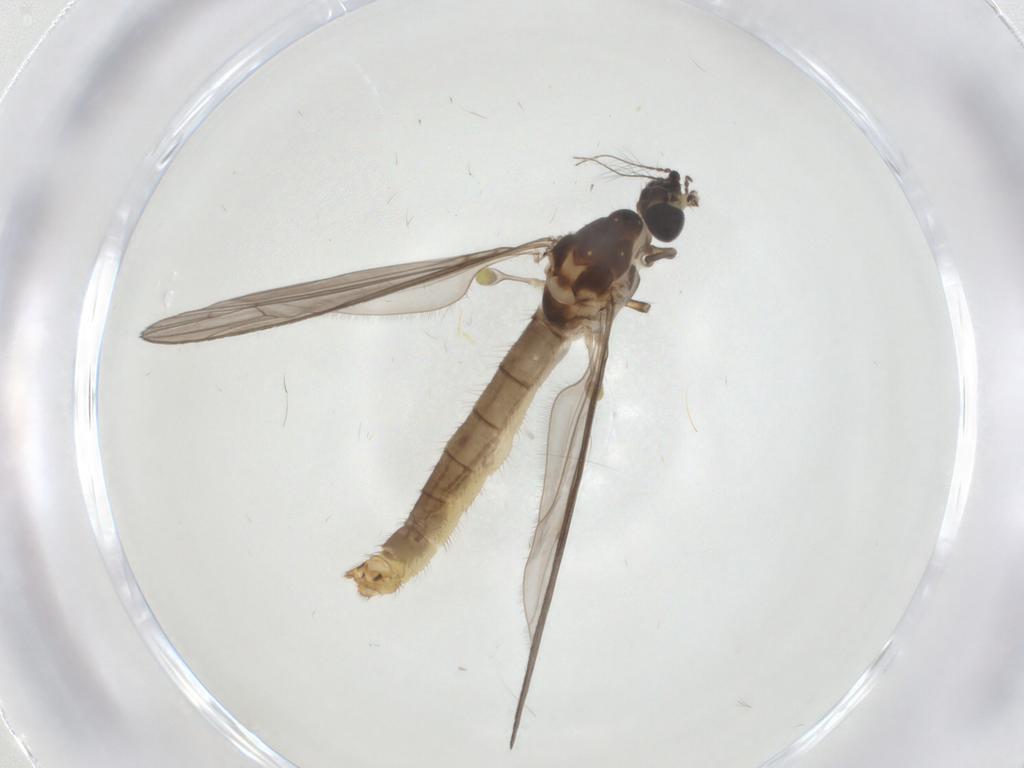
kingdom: Animalia
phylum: Arthropoda
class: Insecta
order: Diptera
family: Limoniidae
